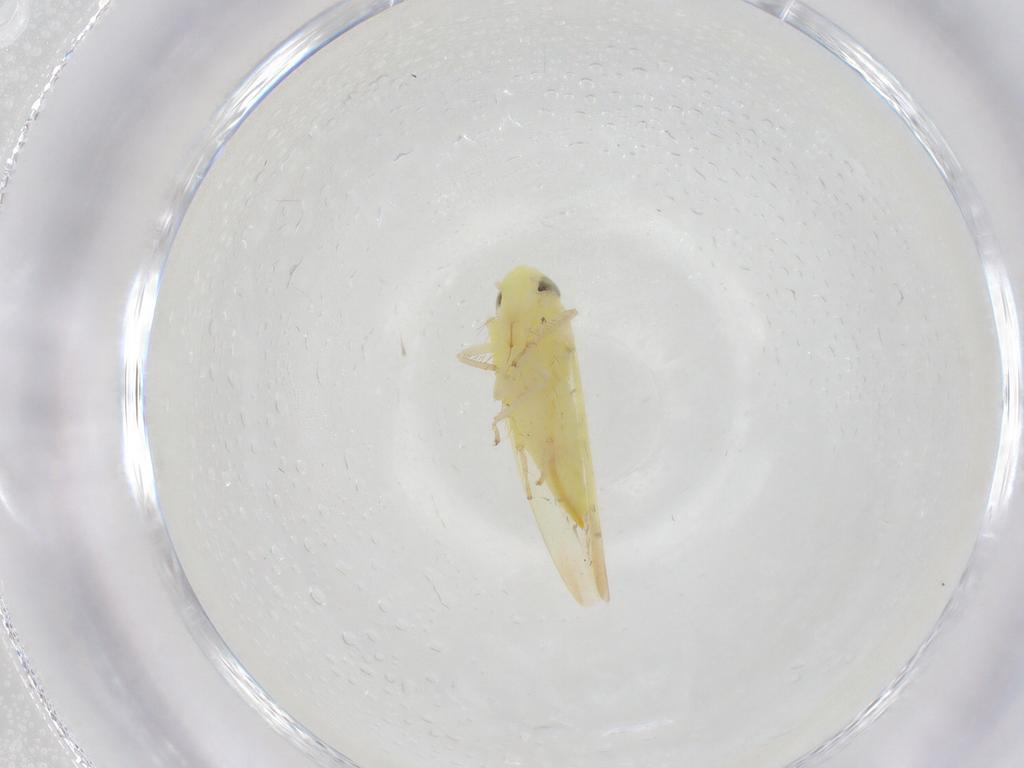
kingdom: Animalia
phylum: Arthropoda
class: Insecta
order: Hemiptera
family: Cicadellidae
